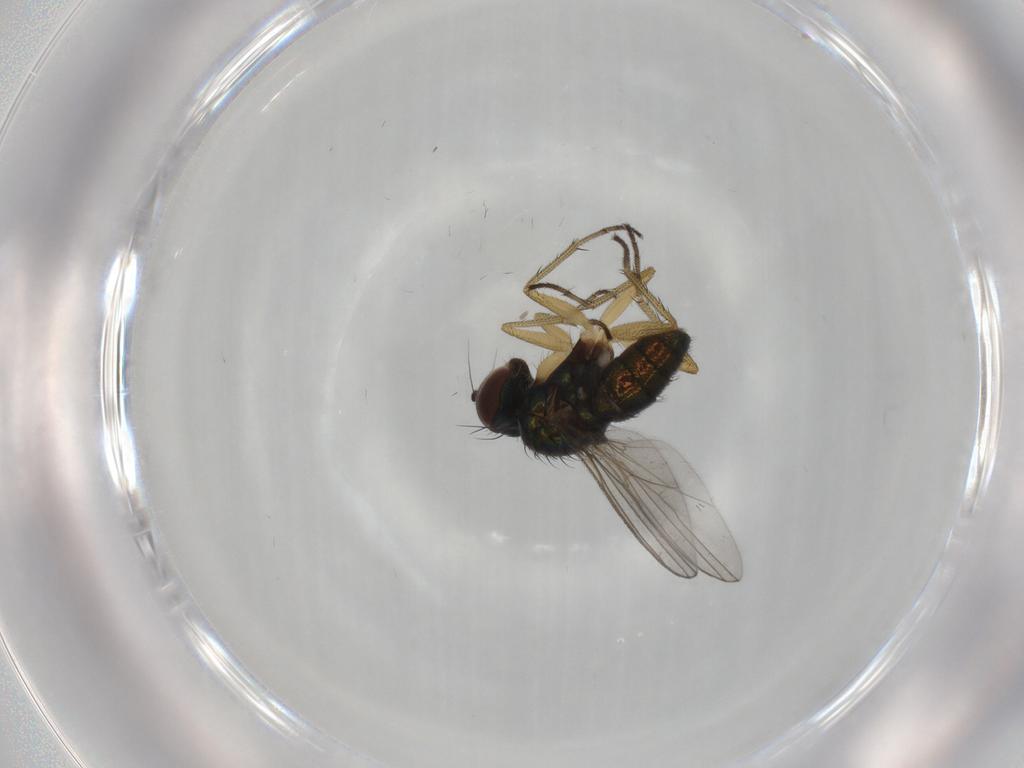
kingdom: Animalia
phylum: Arthropoda
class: Insecta
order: Diptera
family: Dolichopodidae
